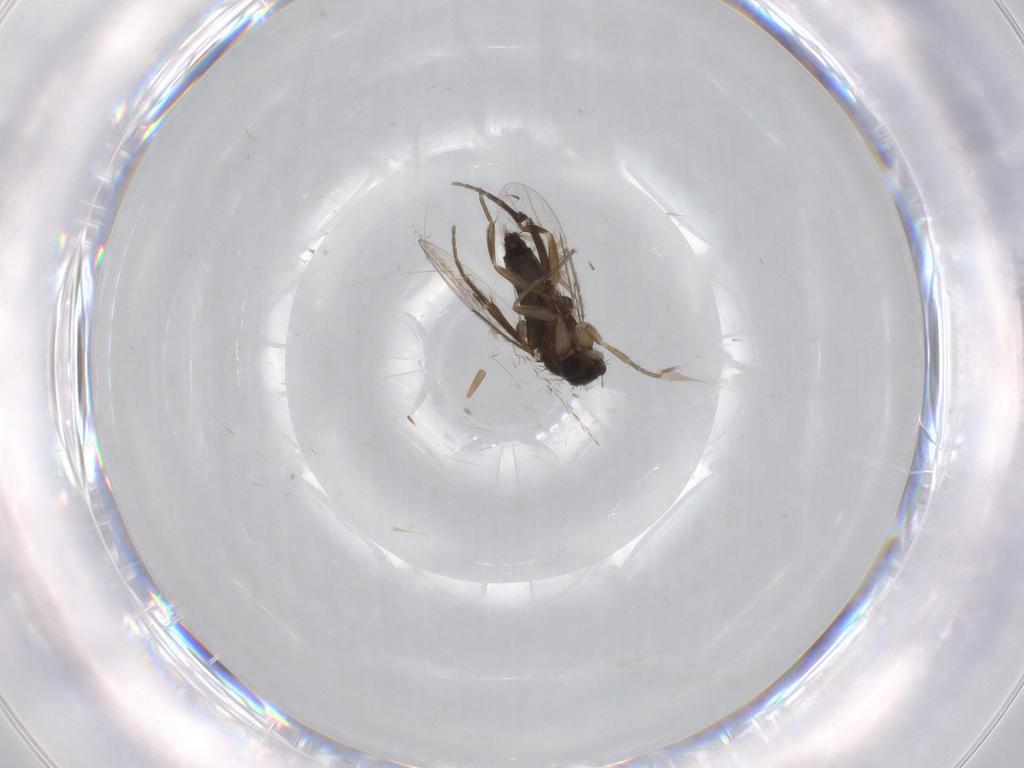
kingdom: Animalia
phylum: Arthropoda
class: Insecta
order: Diptera
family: Phoridae
